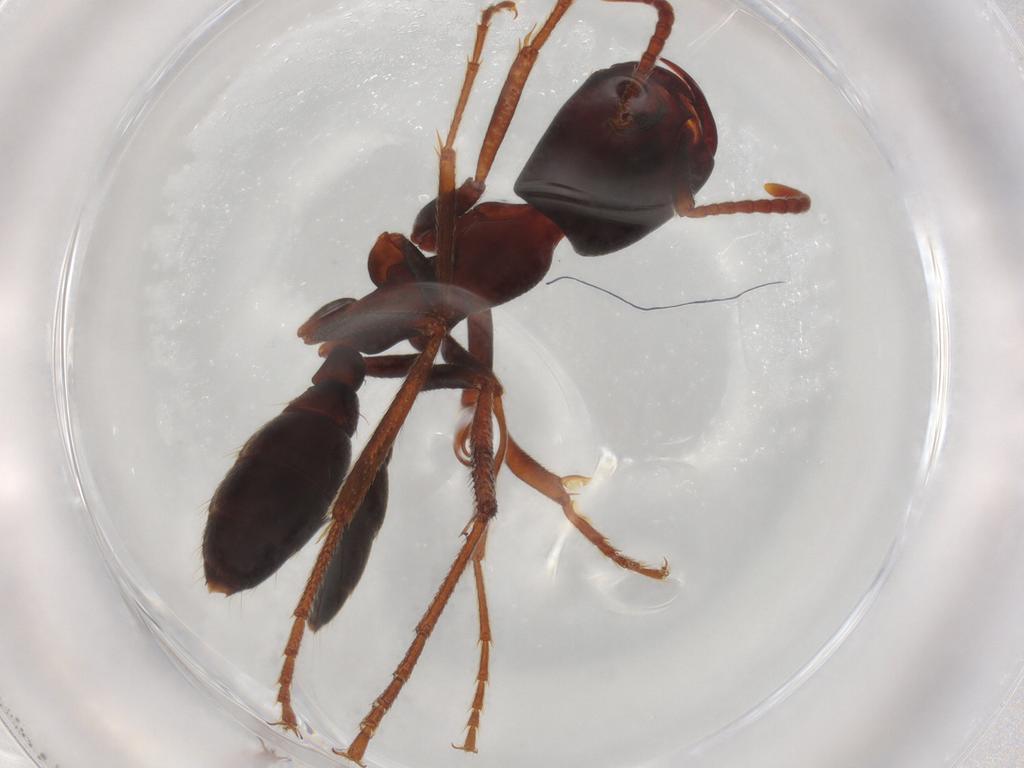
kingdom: Animalia
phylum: Arthropoda
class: Insecta
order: Hymenoptera
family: Formicidae
